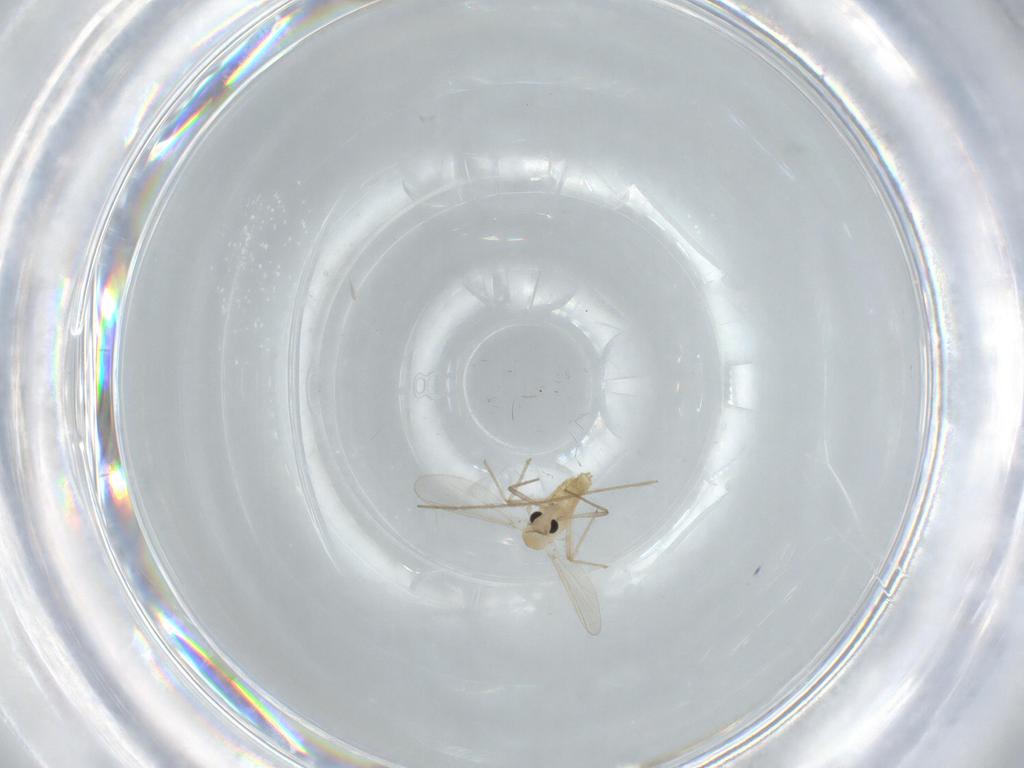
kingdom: Animalia
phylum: Arthropoda
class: Insecta
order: Diptera
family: Chironomidae
